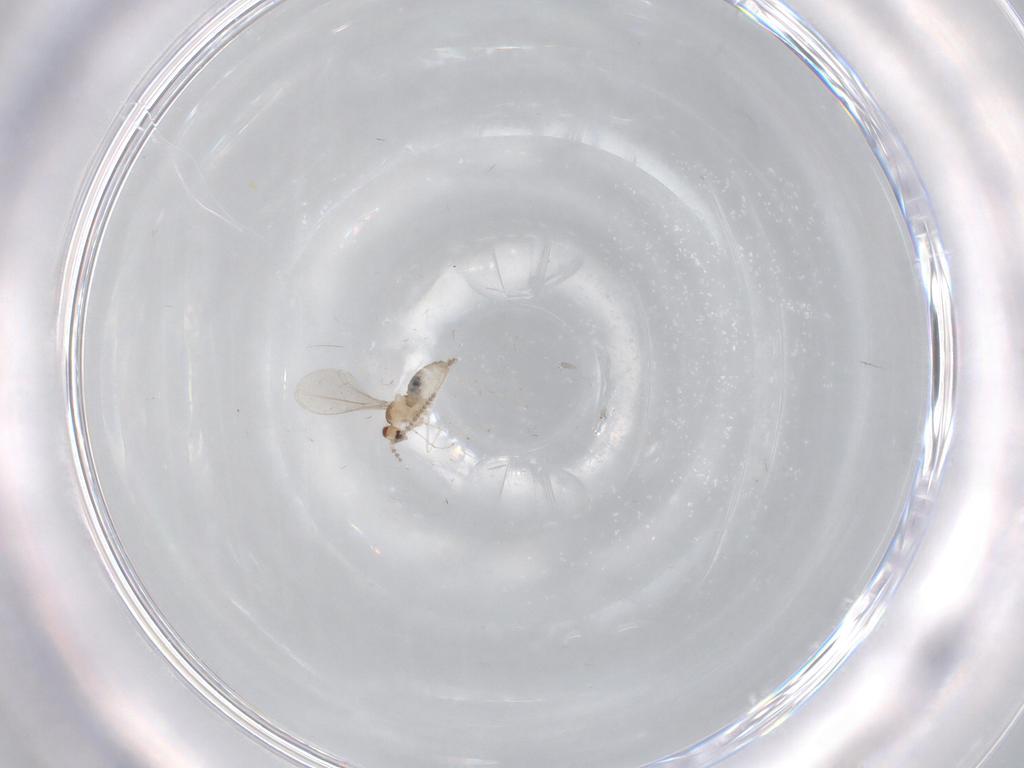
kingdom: Animalia
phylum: Arthropoda
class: Insecta
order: Diptera
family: Cecidomyiidae
